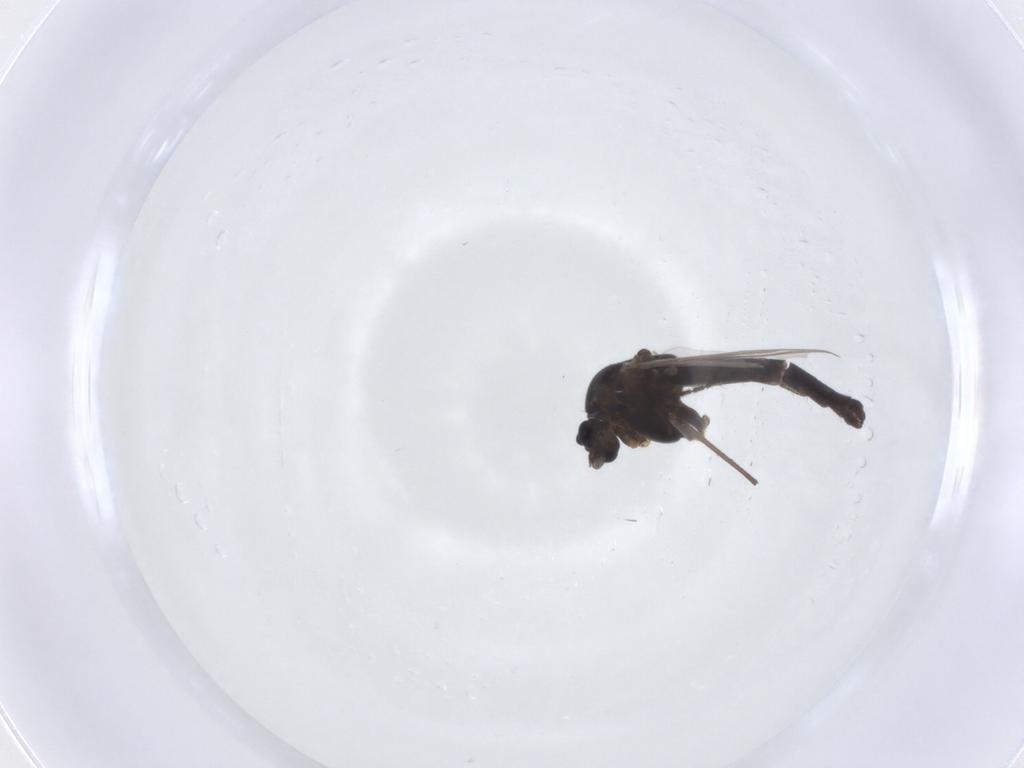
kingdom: Animalia
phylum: Arthropoda
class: Insecta
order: Diptera
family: Chironomidae
